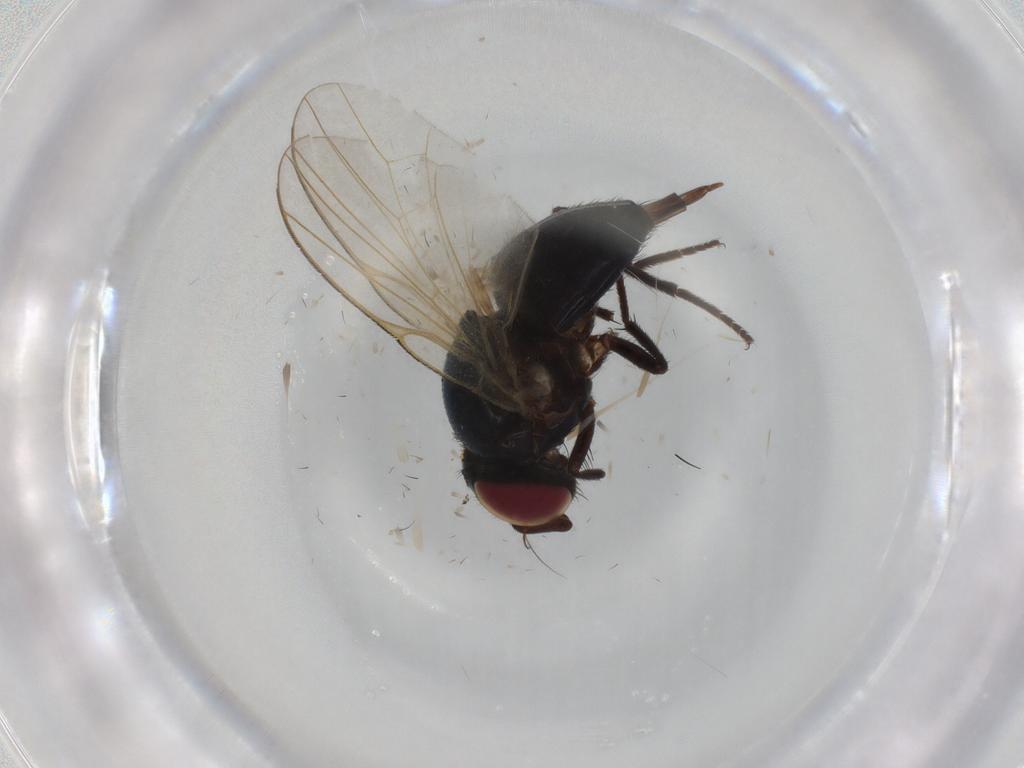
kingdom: Animalia
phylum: Arthropoda
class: Insecta
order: Diptera
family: Lonchaeidae
